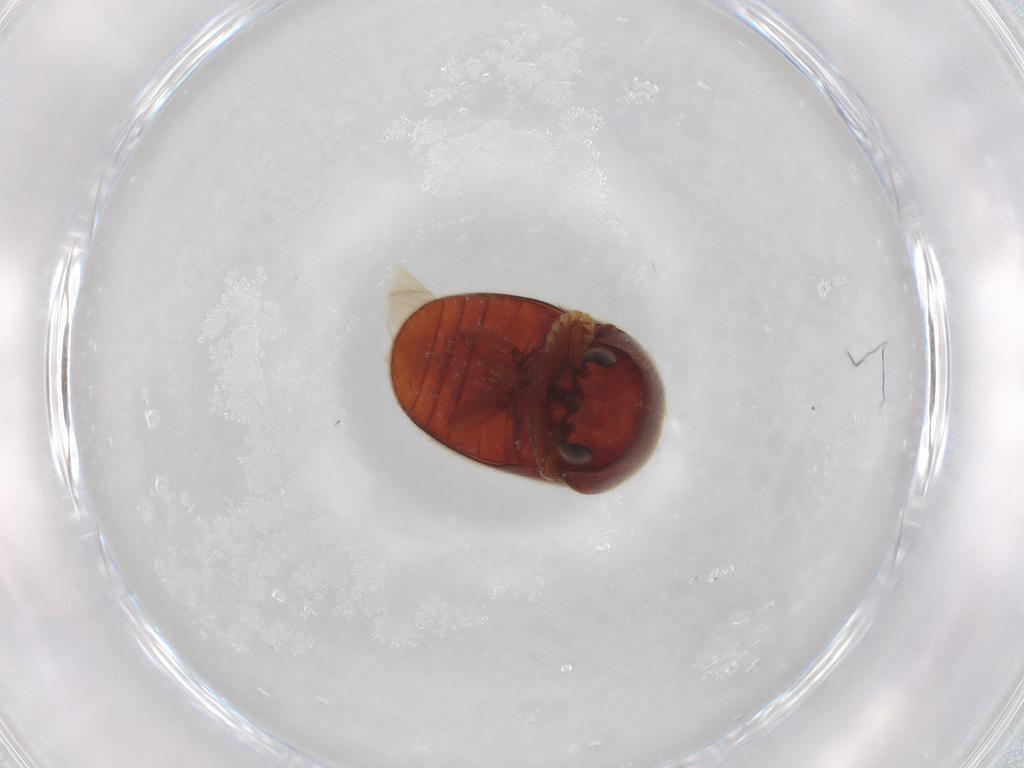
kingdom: Animalia
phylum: Arthropoda
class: Insecta
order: Coleoptera
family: Anobiidae
